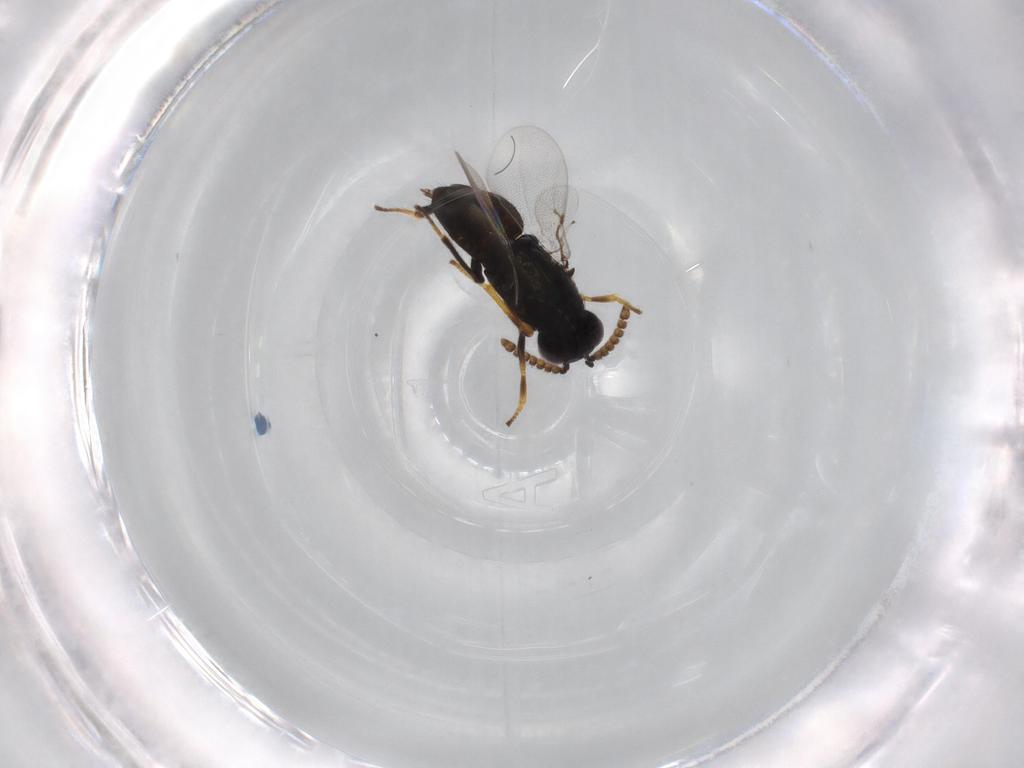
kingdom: Animalia
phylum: Arthropoda
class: Insecta
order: Hymenoptera
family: Encyrtidae
